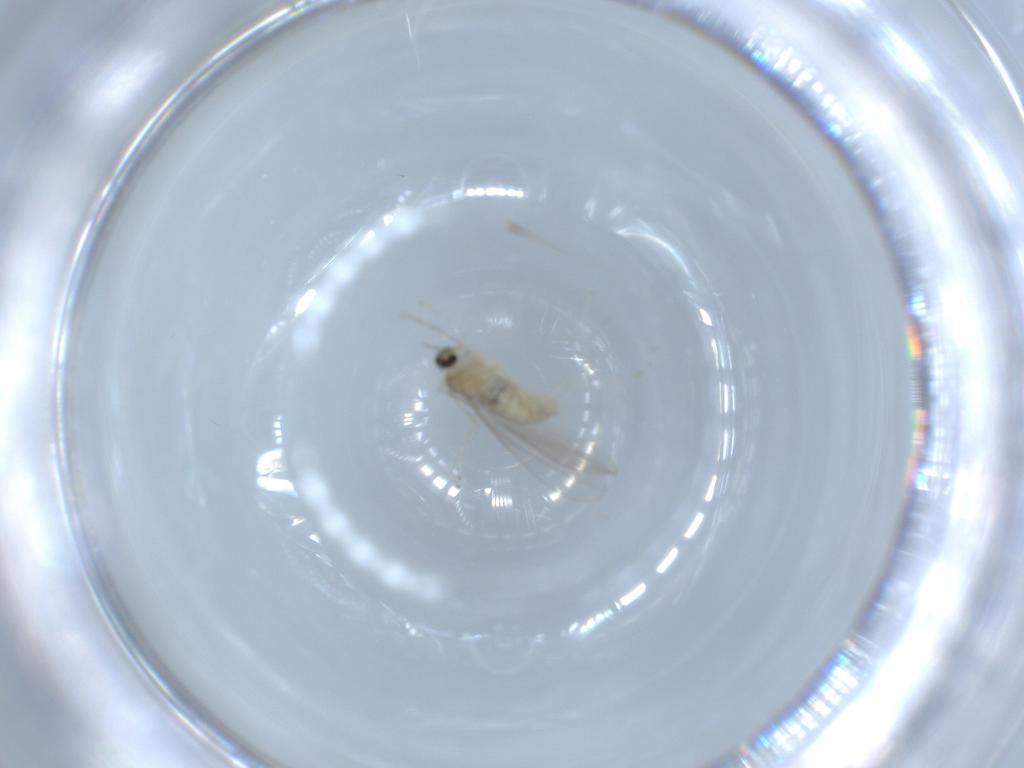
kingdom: Animalia
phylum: Arthropoda
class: Insecta
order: Diptera
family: Cecidomyiidae
